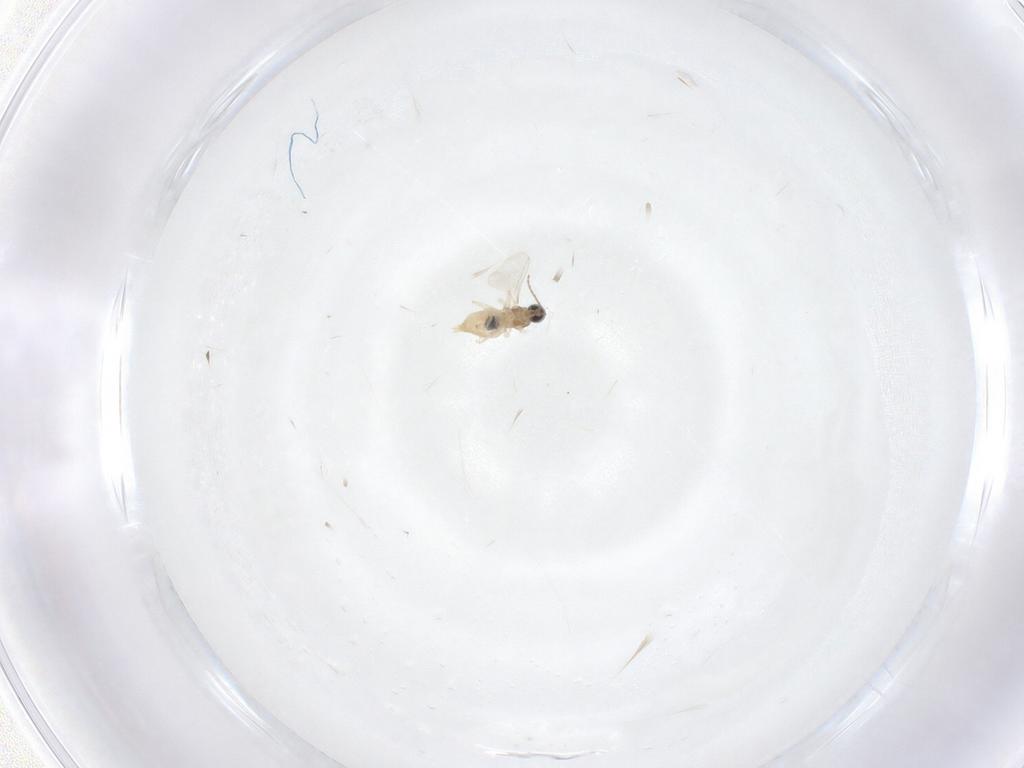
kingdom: Animalia
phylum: Arthropoda
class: Insecta
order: Diptera
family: Cecidomyiidae
